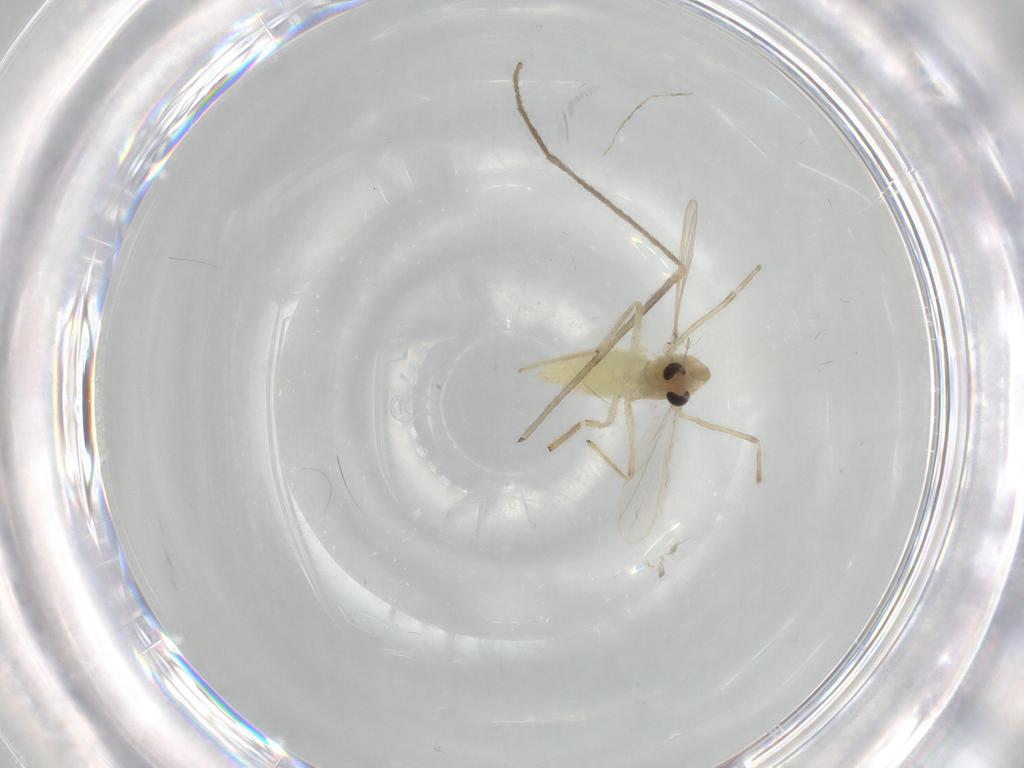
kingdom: Animalia
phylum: Arthropoda
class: Insecta
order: Diptera
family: Chironomidae
